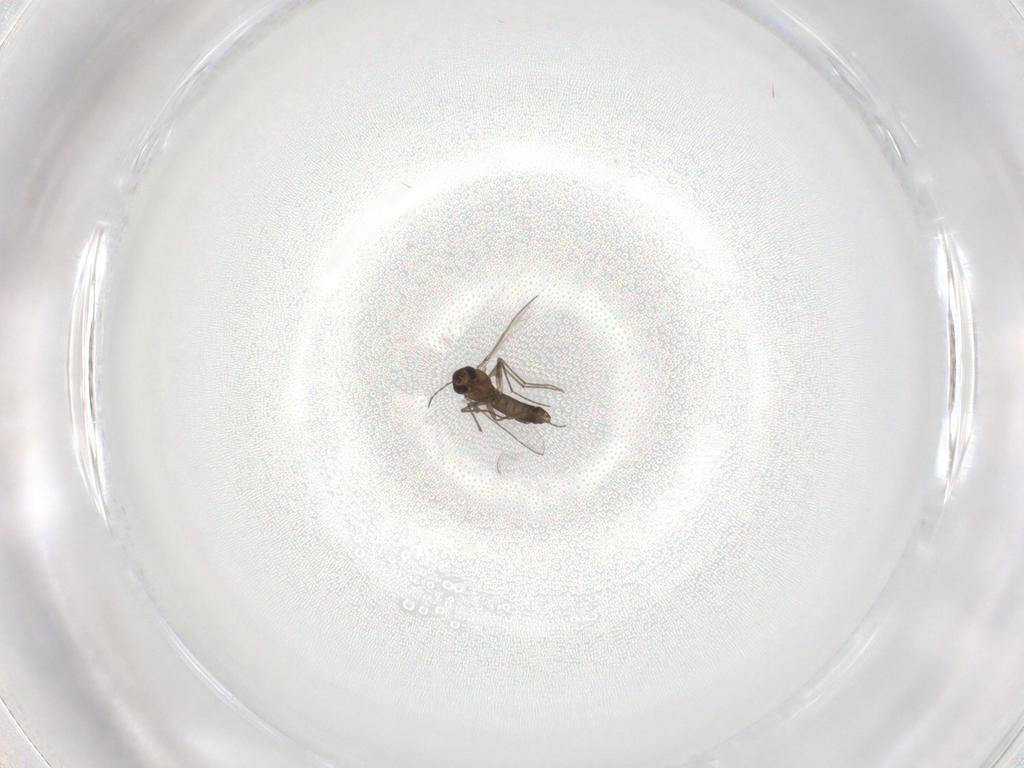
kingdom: Animalia
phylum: Arthropoda
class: Insecta
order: Diptera
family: Chironomidae
